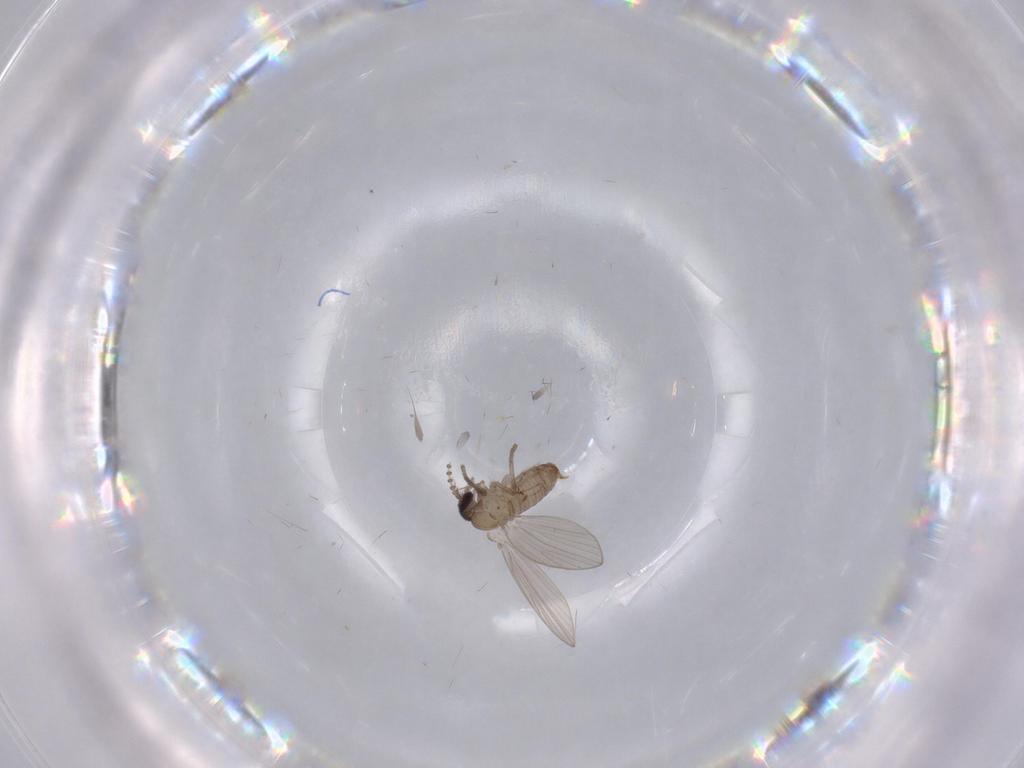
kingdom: Animalia
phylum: Arthropoda
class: Insecta
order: Diptera
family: Psychodidae
